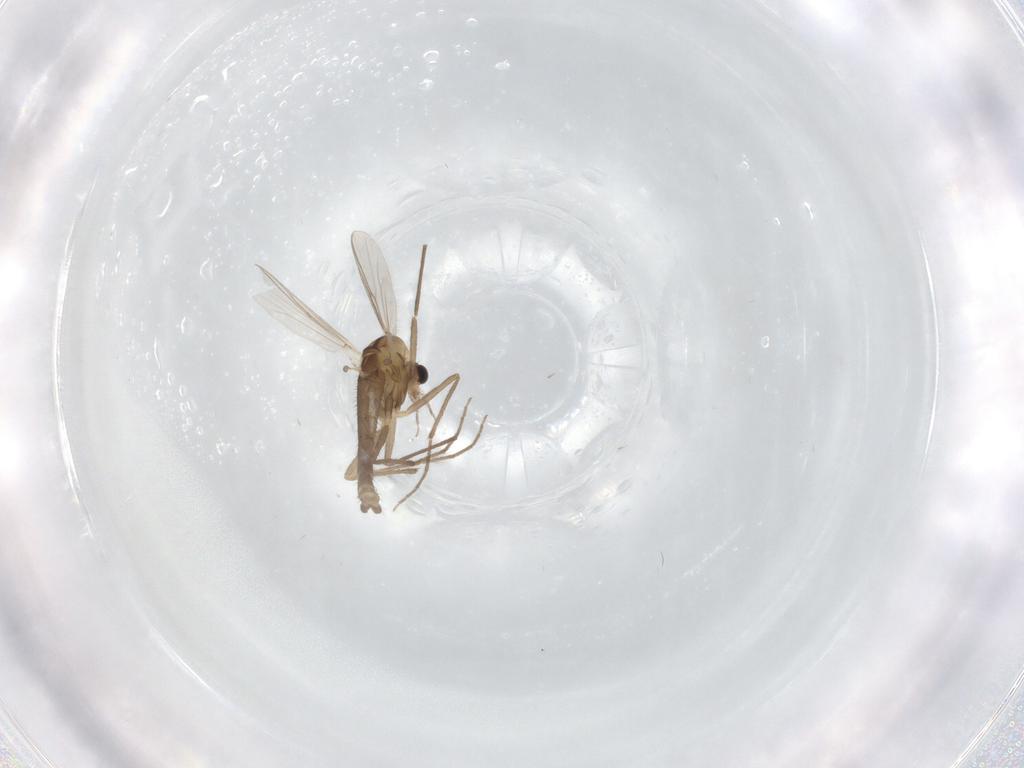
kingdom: Animalia
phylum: Arthropoda
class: Insecta
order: Diptera
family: Chironomidae
